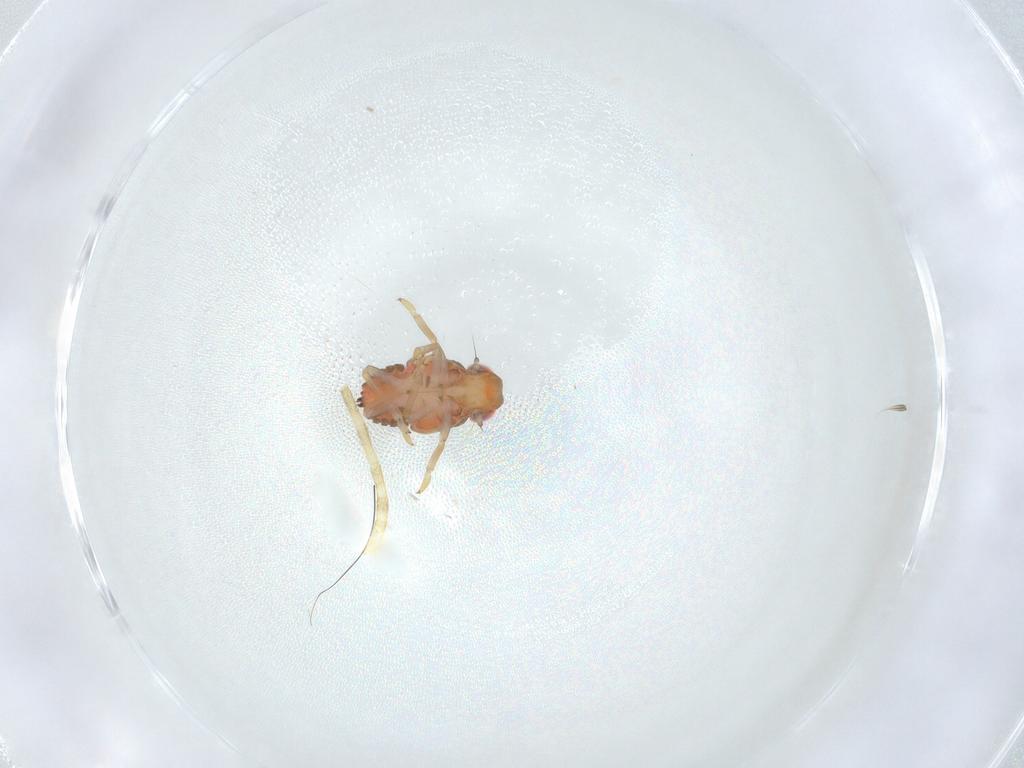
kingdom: Animalia
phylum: Arthropoda
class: Insecta
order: Hemiptera
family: Issidae
